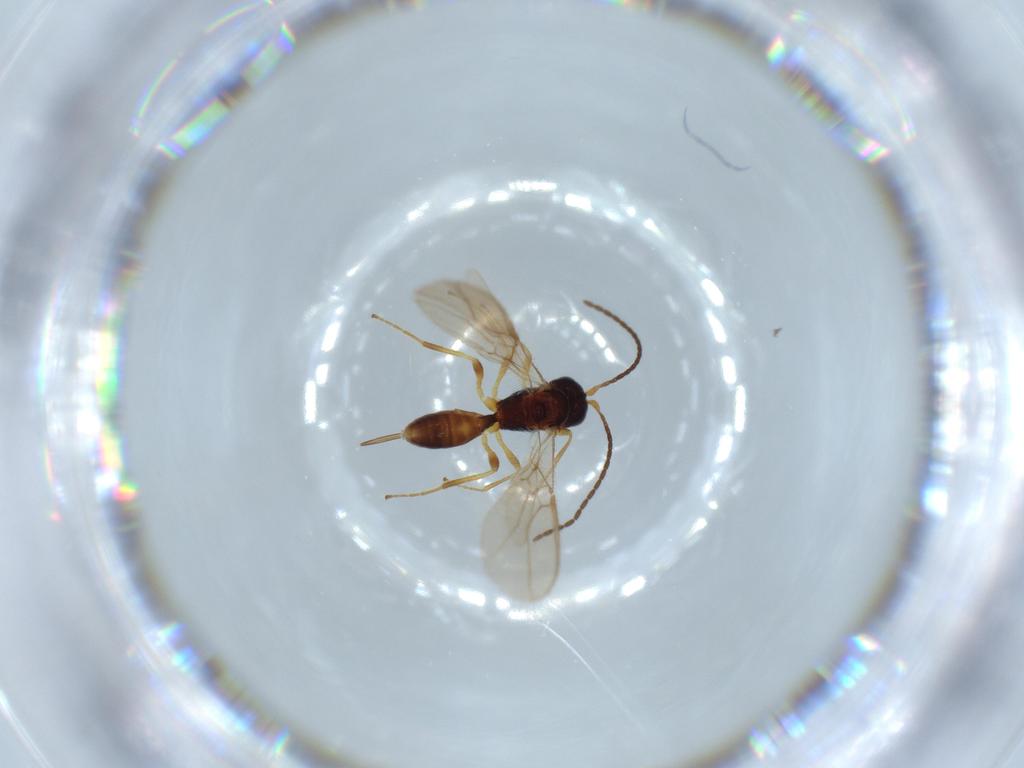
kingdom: Animalia
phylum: Arthropoda
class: Insecta
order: Hymenoptera
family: Braconidae
